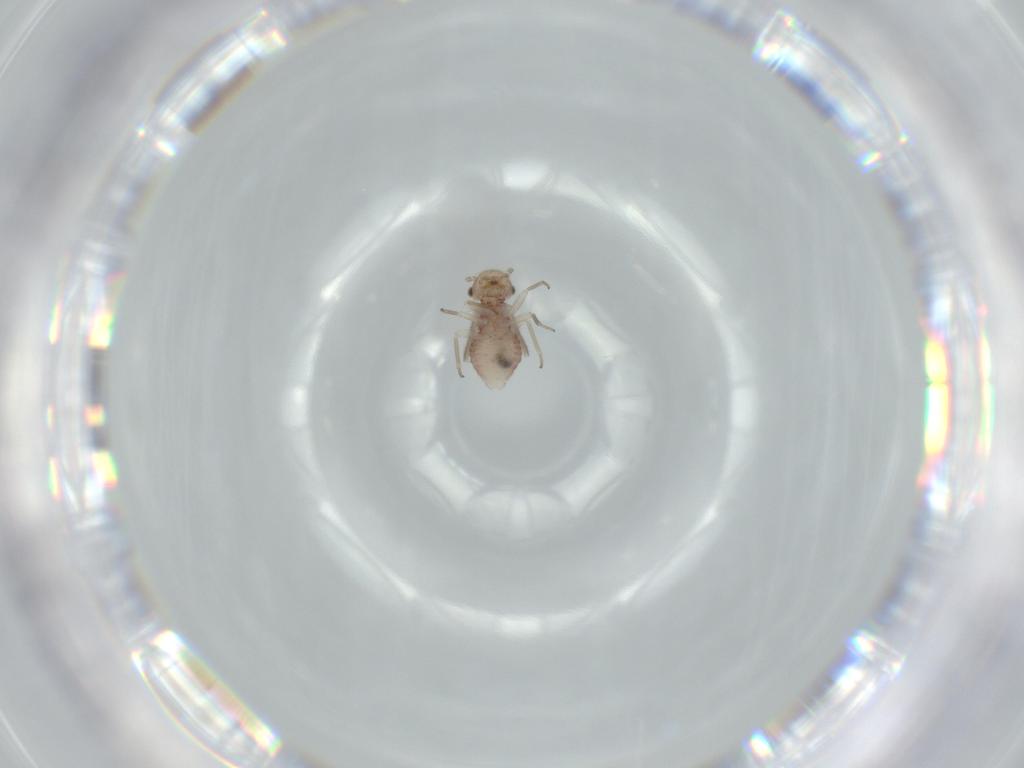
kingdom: Animalia
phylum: Arthropoda
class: Insecta
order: Psocodea
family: Ectopsocidae
